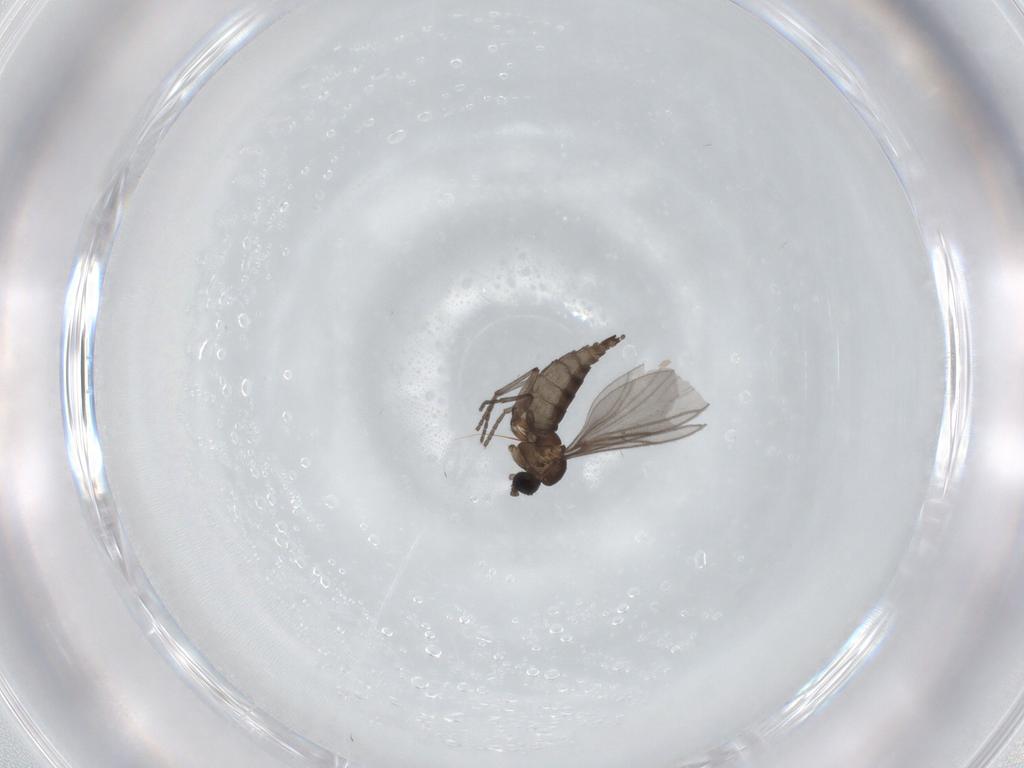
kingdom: Animalia
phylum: Arthropoda
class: Insecta
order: Diptera
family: Sciaridae
